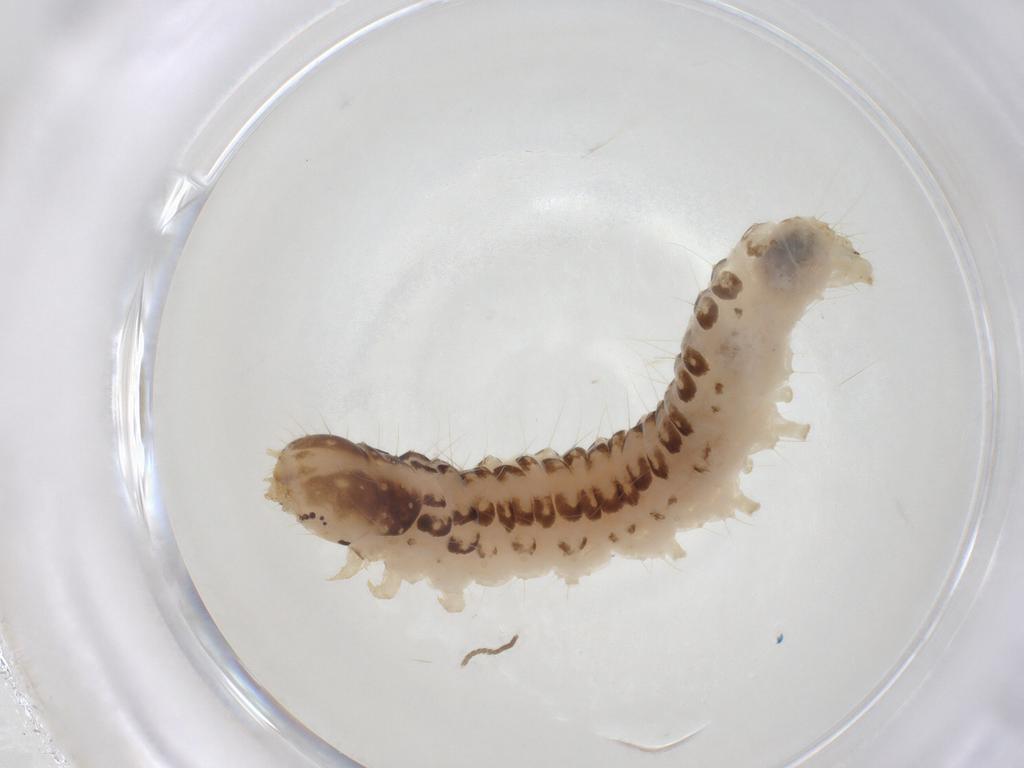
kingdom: Animalia
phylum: Arthropoda
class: Insecta
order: Lepidoptera
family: Crambidae
